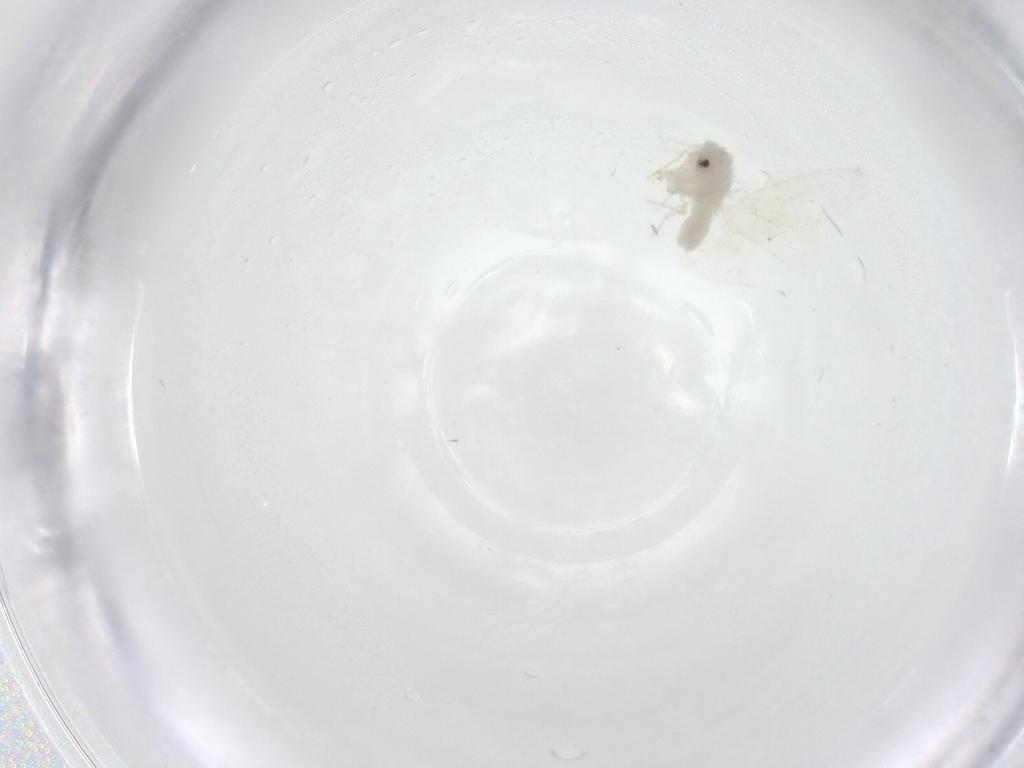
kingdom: Animalia
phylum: Arthropoda
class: Insecta
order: Hemiptera
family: Aleyrodidae
